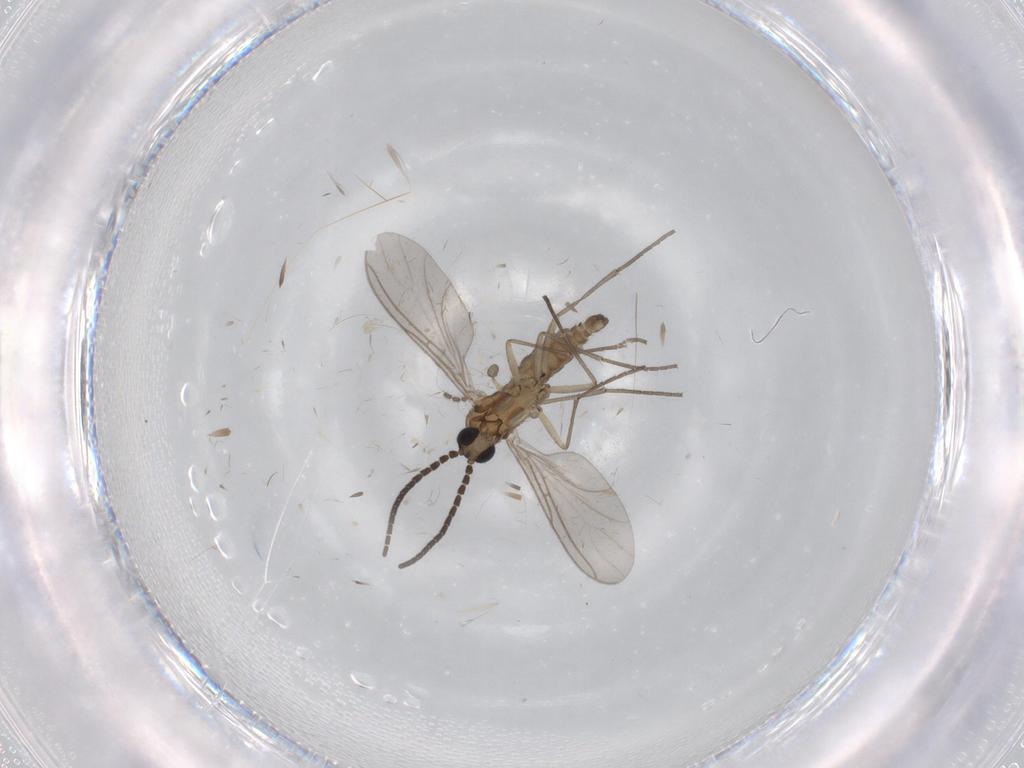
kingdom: Animalia
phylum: Arthropoda
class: Insecta
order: Diptera
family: Sciaridae
